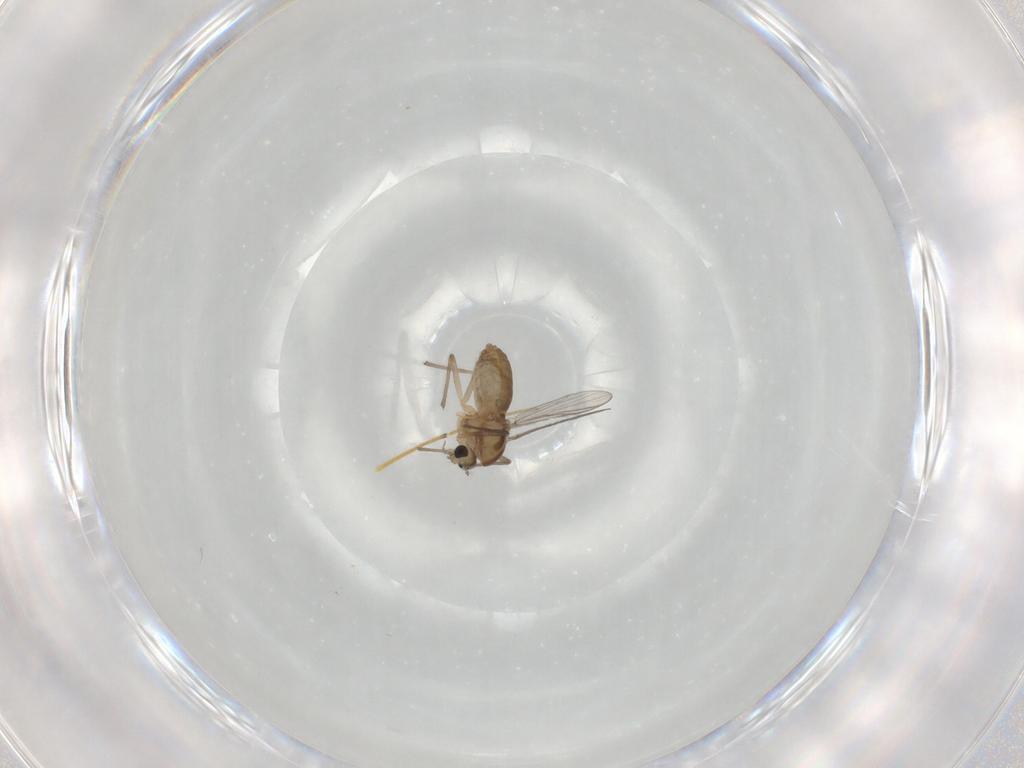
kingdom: Animalia
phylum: Arthropoda
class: Insecta
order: Diptera
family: Chironomidae
